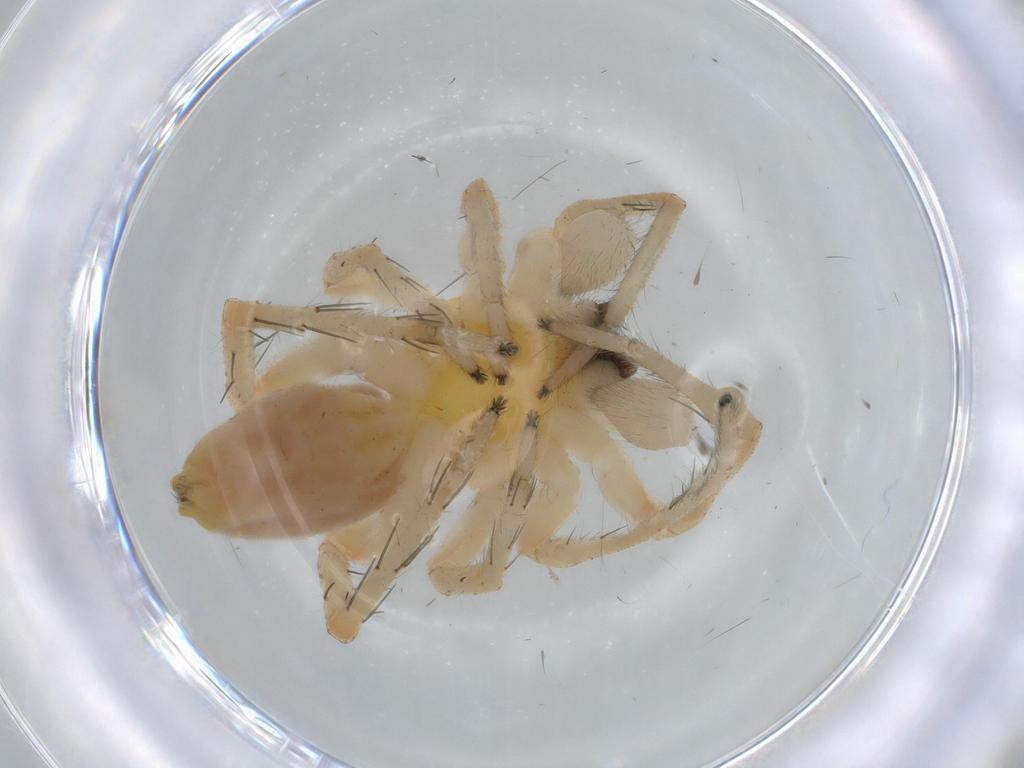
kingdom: Animalia
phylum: Arthropoda
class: Arachnida
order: Araneae
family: Anyphaenidae
